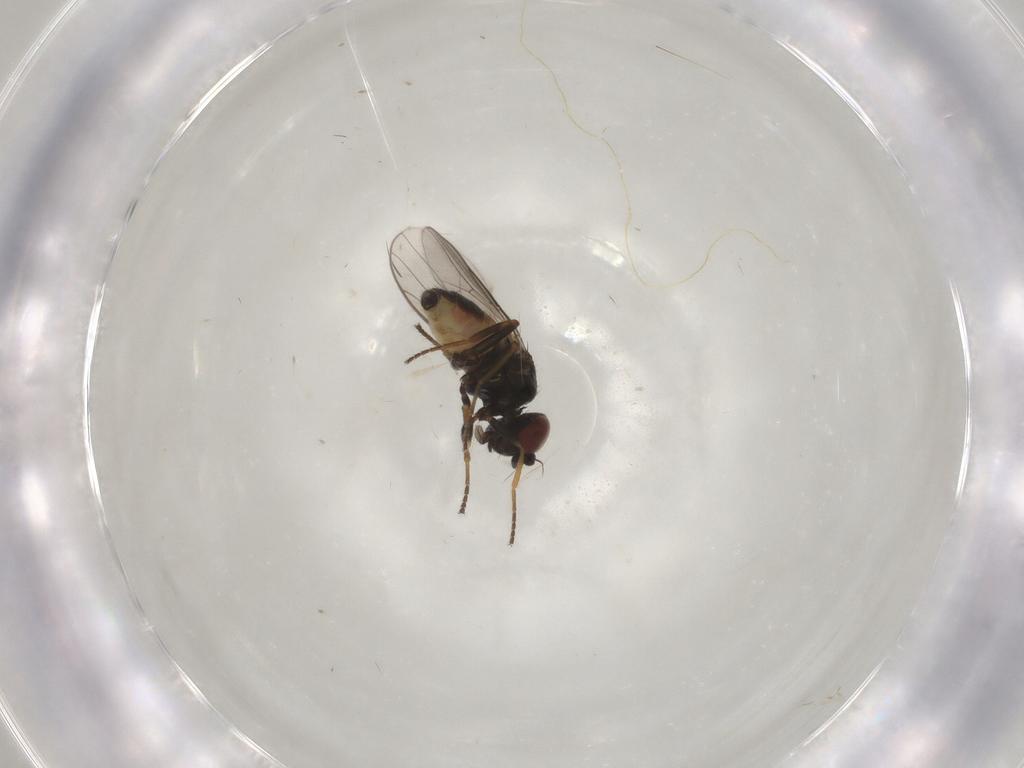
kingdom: Animalia
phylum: Arthropoda
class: Insecta
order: Diptera
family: Chloropidae
